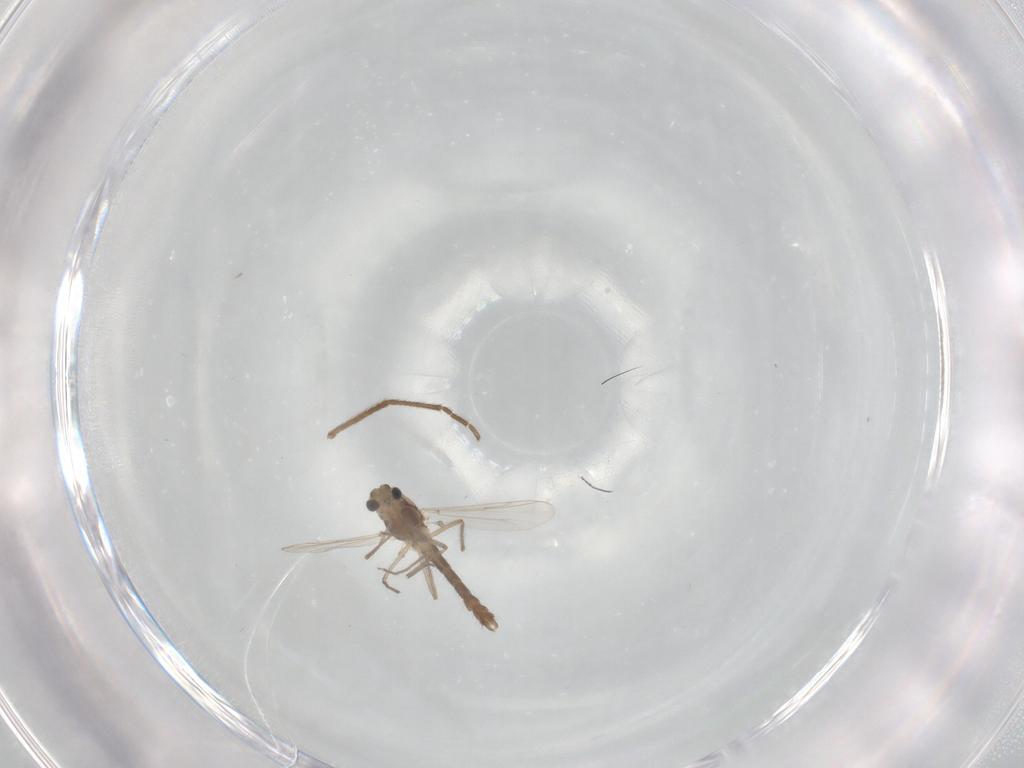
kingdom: Animalia
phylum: Arthropoda
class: Insecta
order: Diptera
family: Chironomidae
